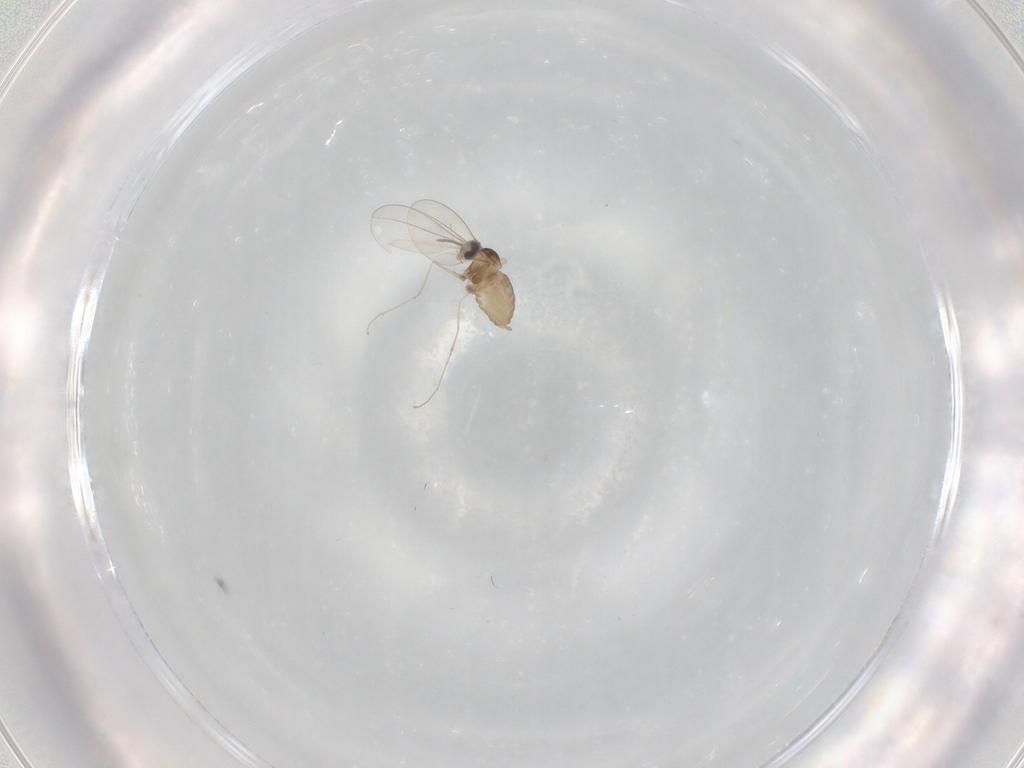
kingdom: Animalia
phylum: Arthropoda
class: Insecta
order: Diptera
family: Cecidomyiidae
